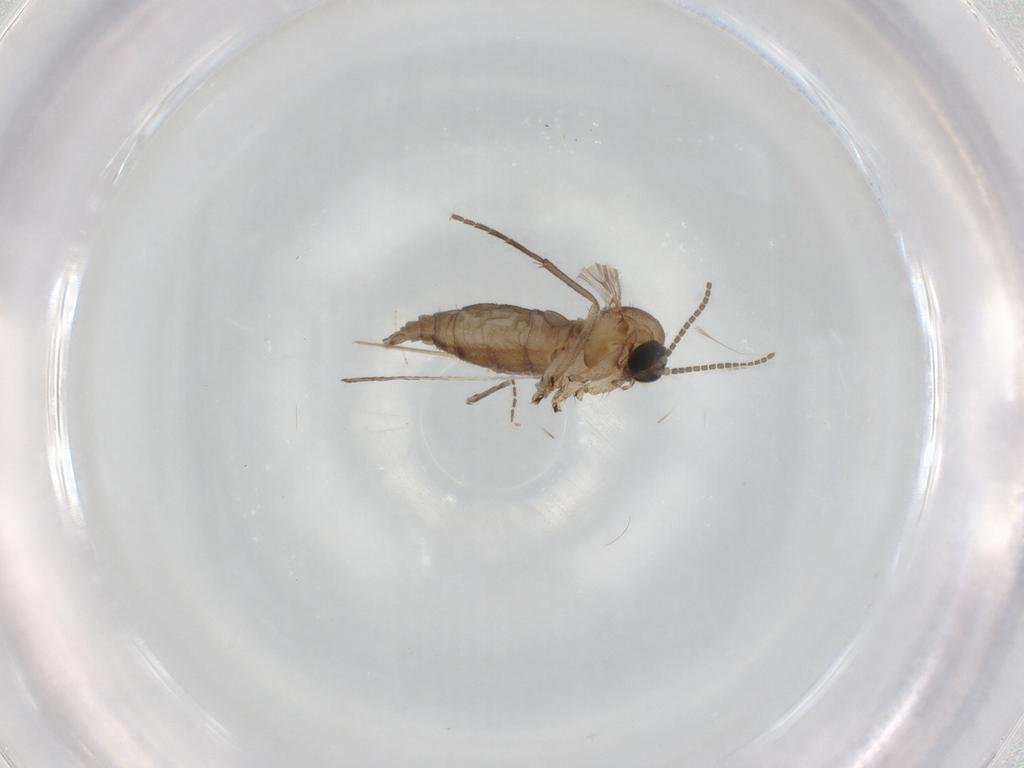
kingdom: Animalia
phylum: Arthropoda
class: Insecta
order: Diptera
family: Sciaridae
